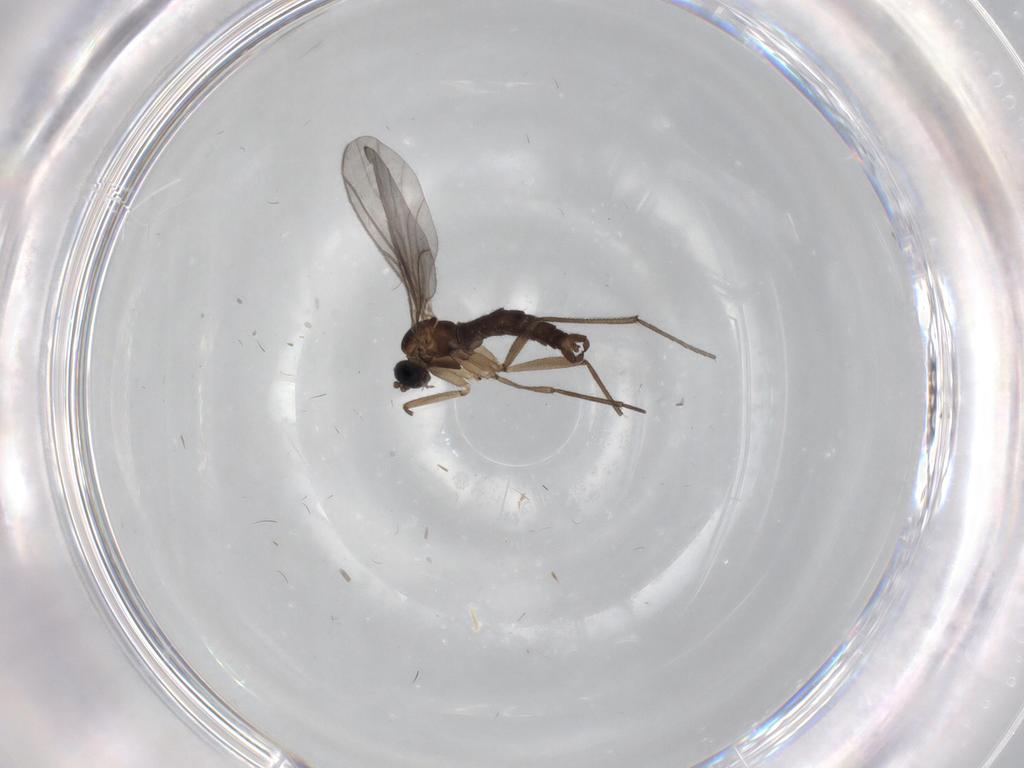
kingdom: Animalia
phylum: Arthropoda
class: Insecta
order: Diptera
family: Sciaridae
